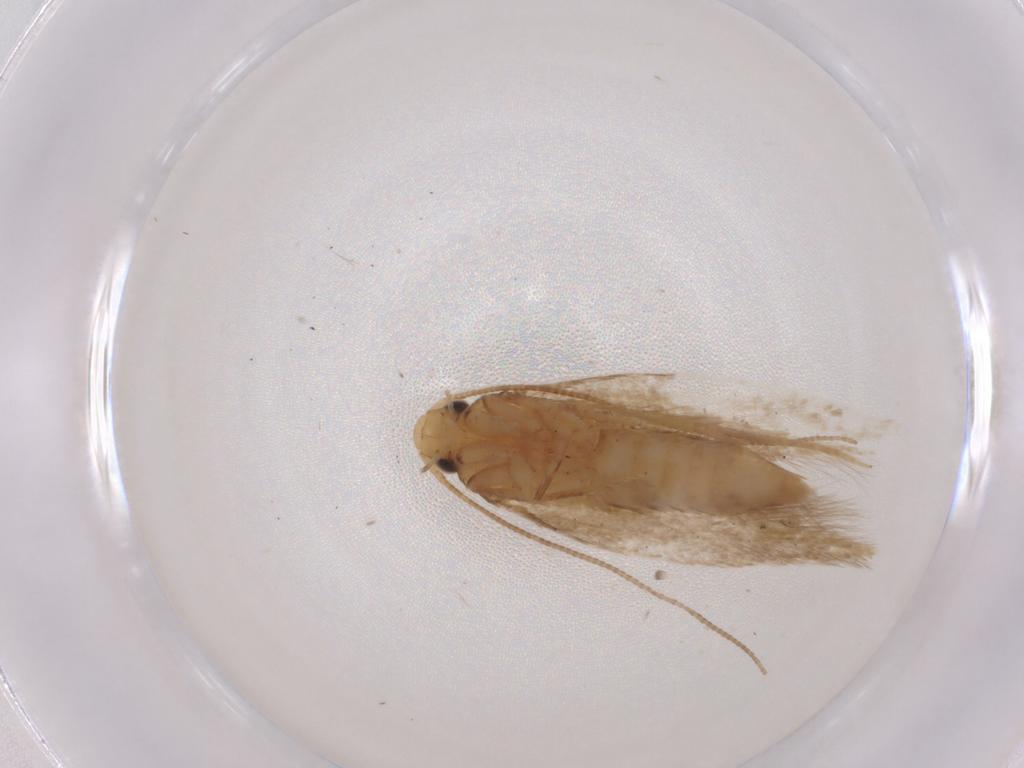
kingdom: Animalia
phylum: Arthropoda
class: Insecta
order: Lepidoptera
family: Tineidae
